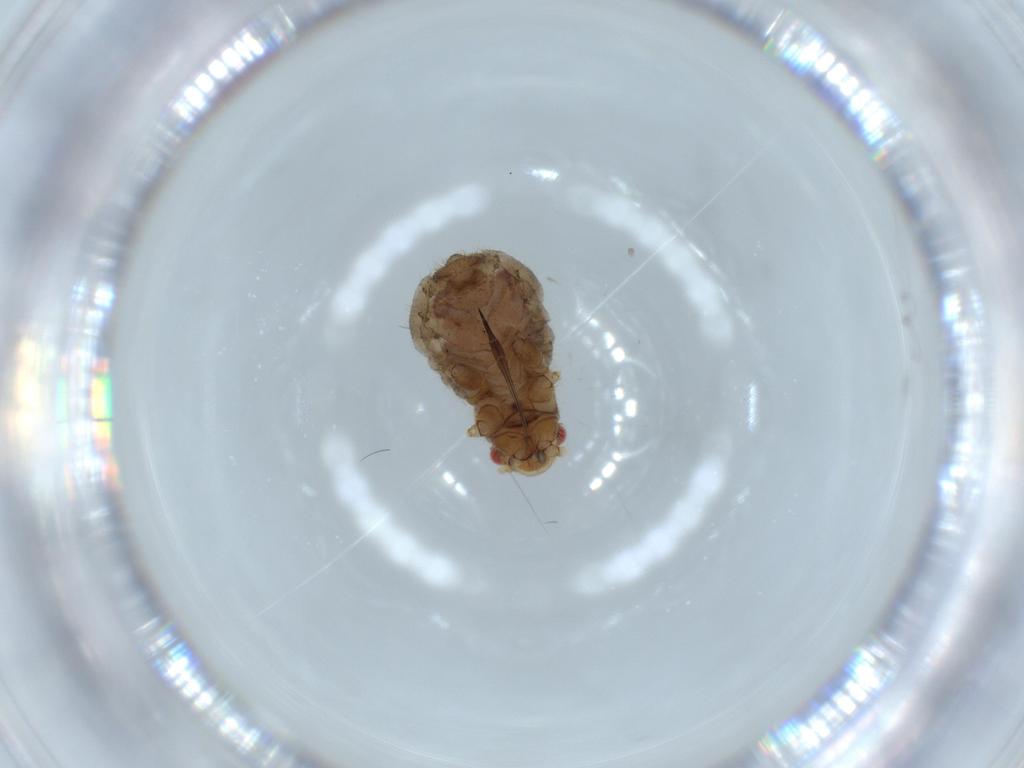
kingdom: Animalia
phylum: Arthropoda
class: Insecta
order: Hemiptera
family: Aphididae
